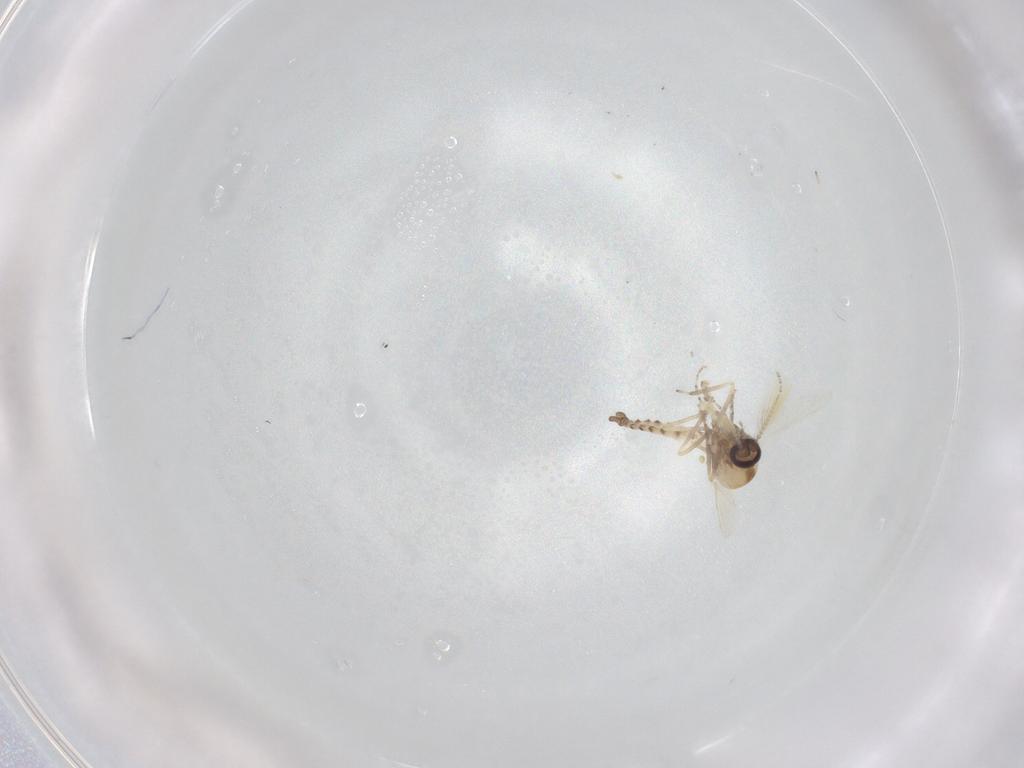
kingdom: Animalia
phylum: Arthropoda
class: Insecta
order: Diptera
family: Ceratopogonidae
